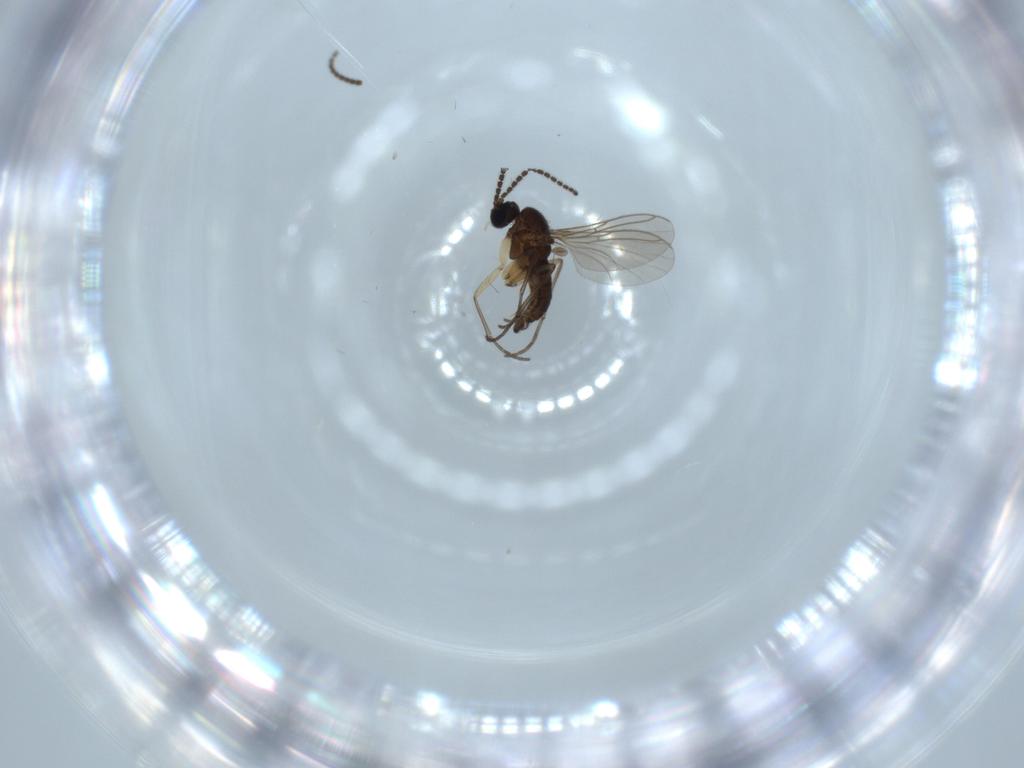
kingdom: Animalia
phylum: Arthropoda
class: Insecta
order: Diptera
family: Sciaridae
